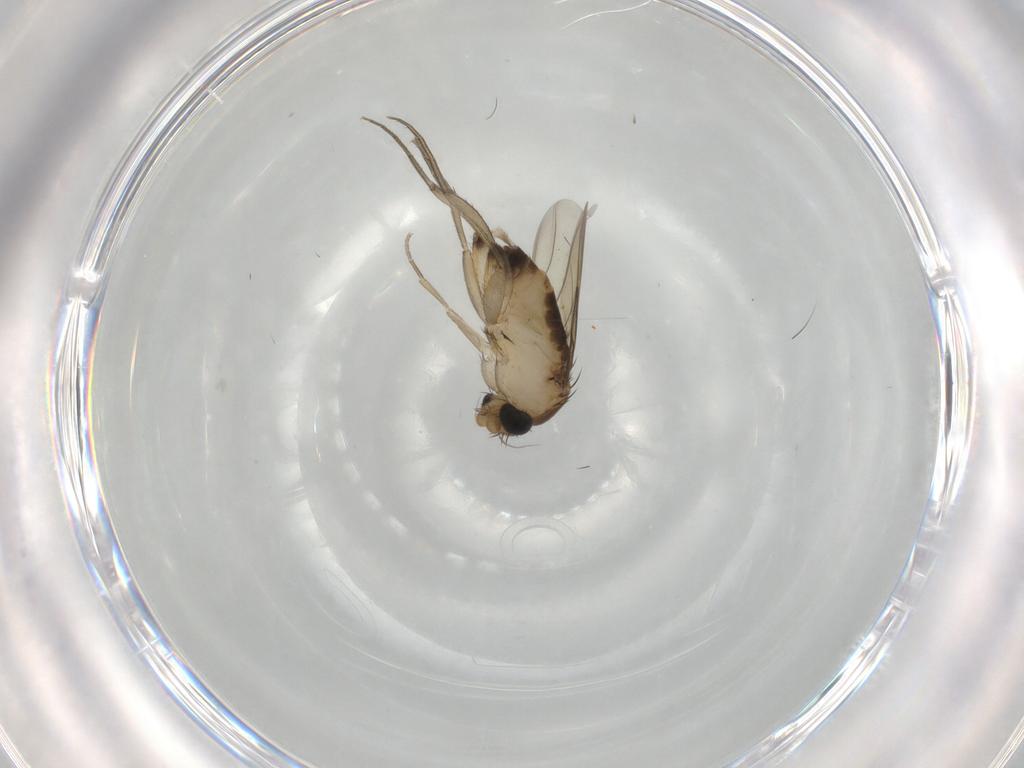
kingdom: Animalia
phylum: Arthropoda
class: Insecta
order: Diptera
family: Phoridae
